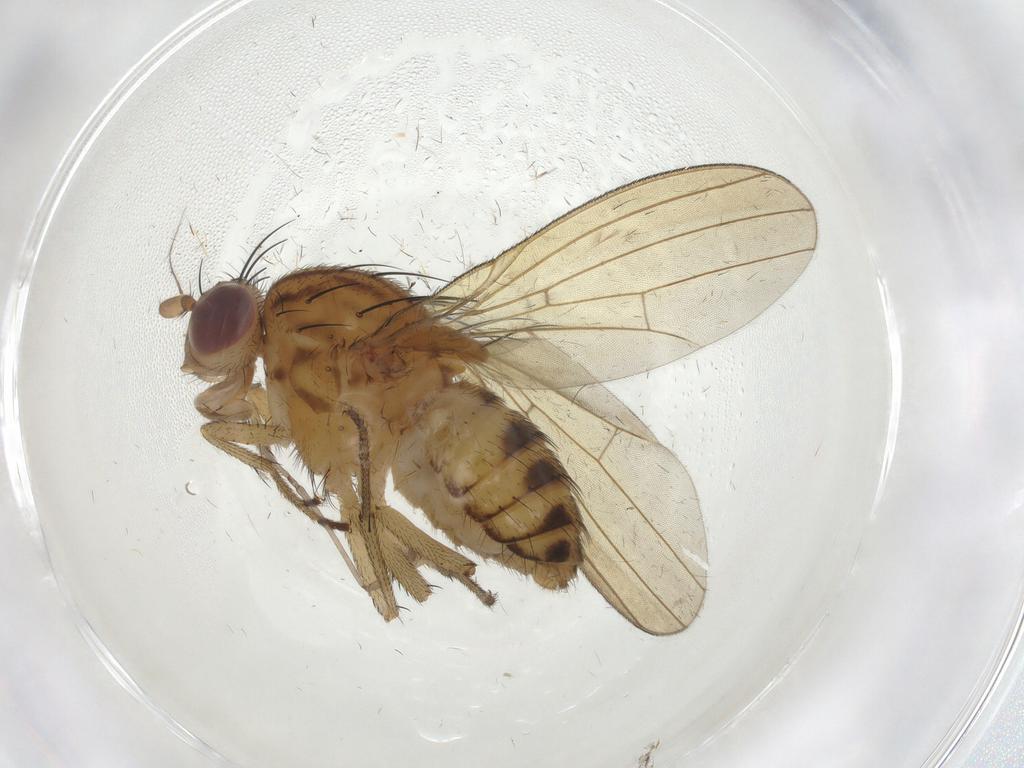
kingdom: Animalia
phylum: Arthropoda
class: Insecta
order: Diptera
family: Cecidomyiidae
